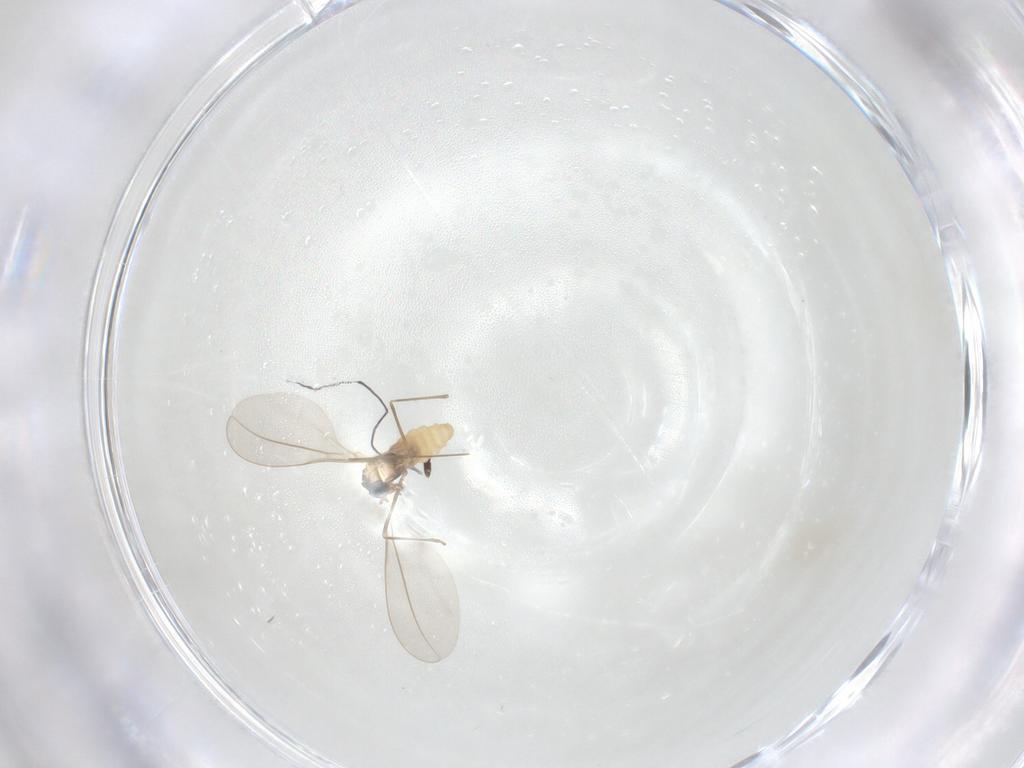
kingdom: Animalia
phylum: Arthropoda
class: Insecta
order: Diptera
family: Cecidomyiidae
